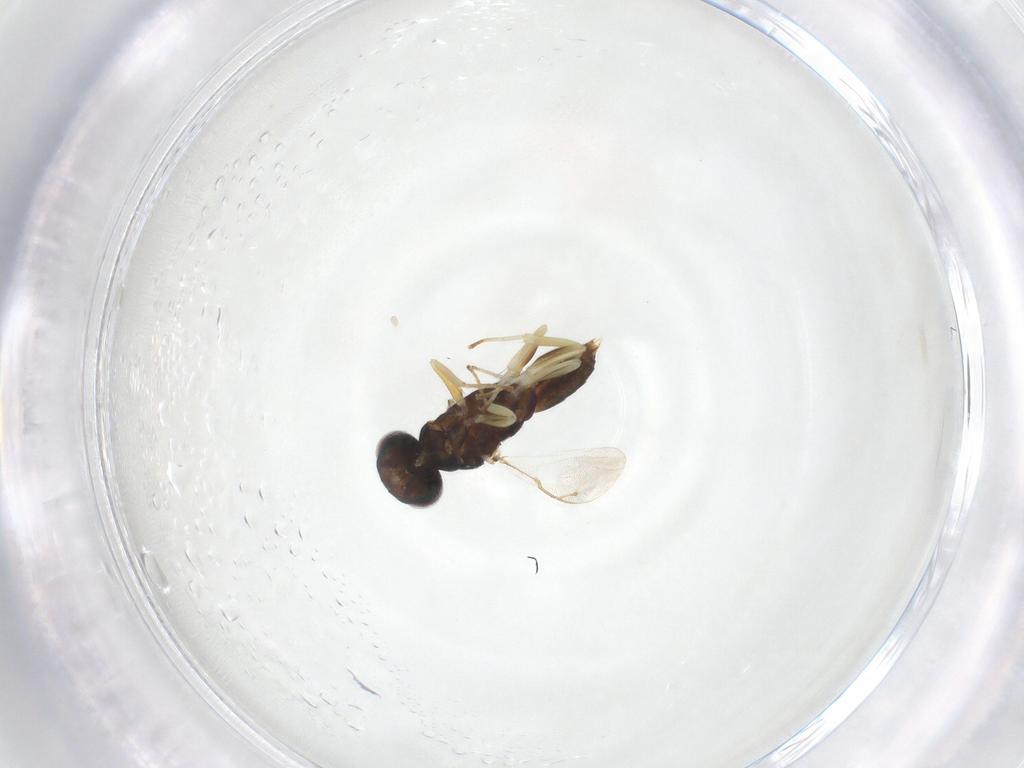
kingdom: Animalia
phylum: Arthropoda
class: Insecta
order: Hymenoptera
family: Eupelmidae
